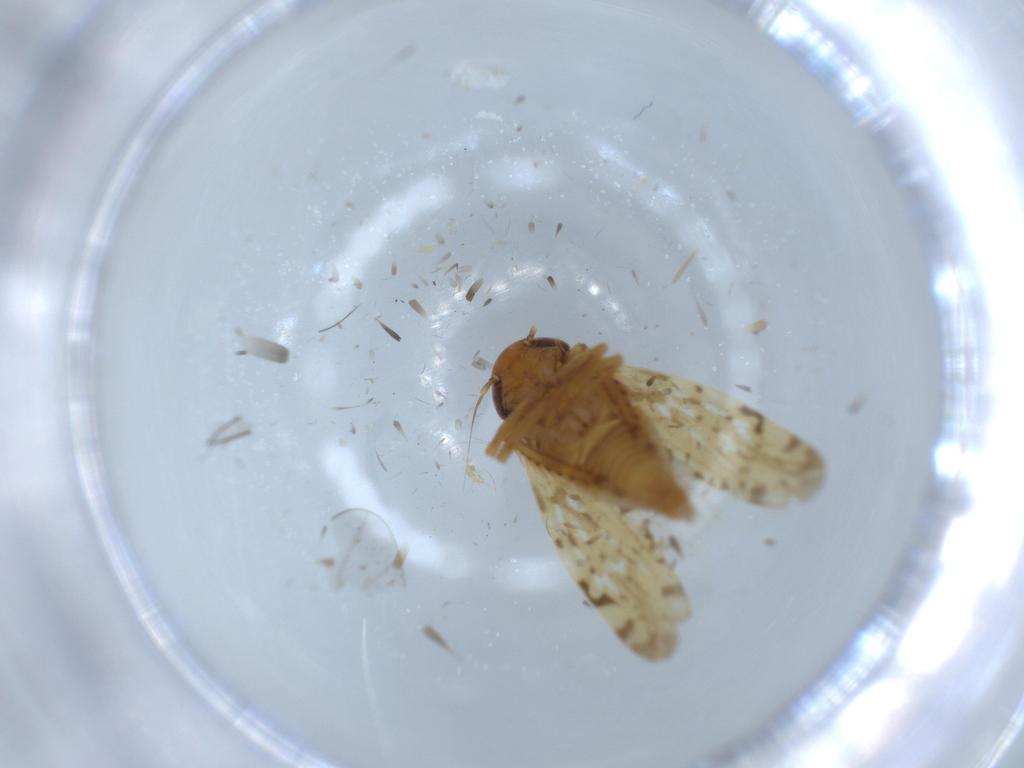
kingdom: Animalia
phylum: Arthropoda
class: Insecta
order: Hemiptera
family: Cicadellidae
